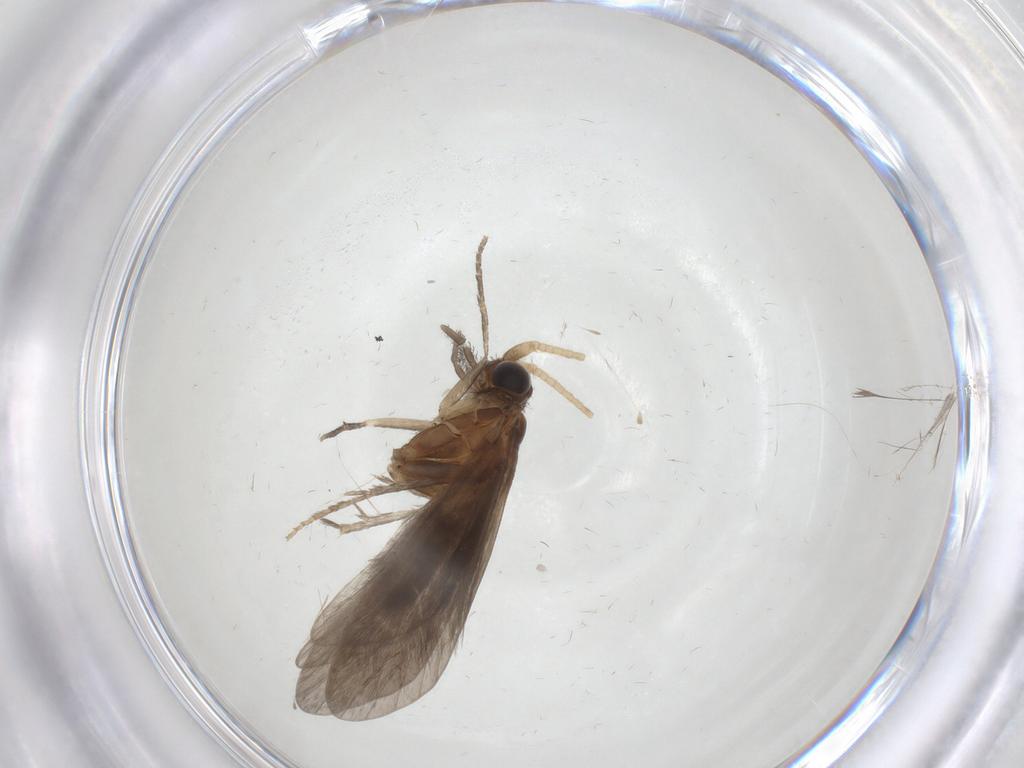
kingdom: Animalia
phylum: Arthropoda
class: Insecta
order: Trichoptera
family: Helicopsychidae
